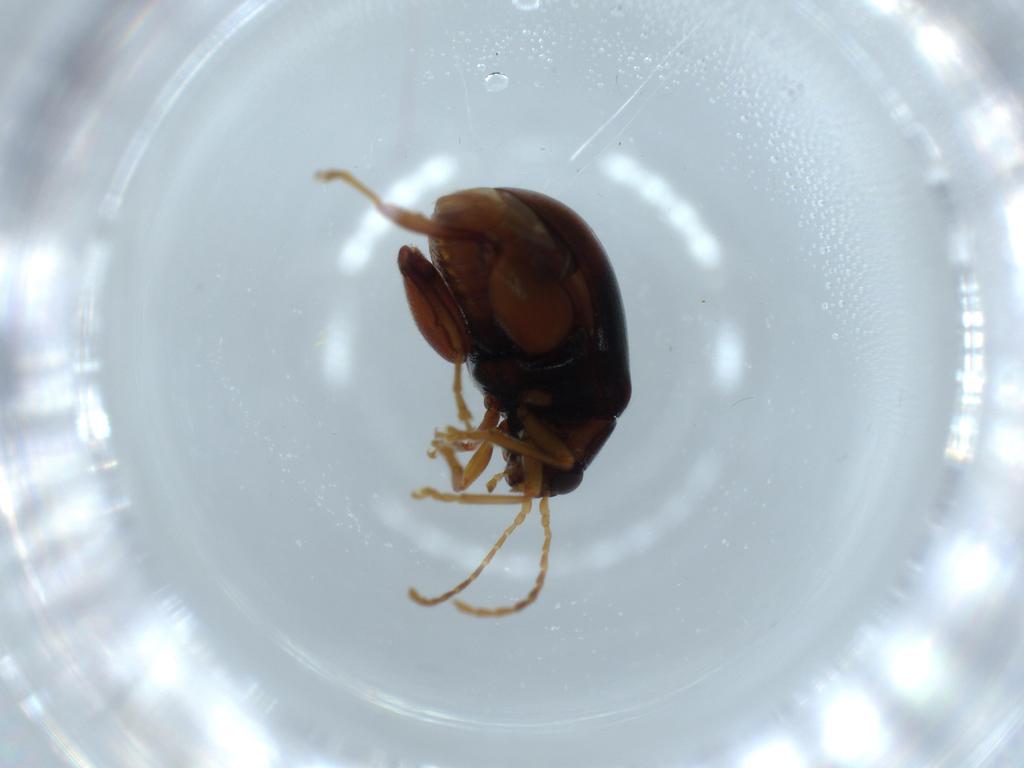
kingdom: Animalia
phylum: Arthropoda
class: Insecta
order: Coleoptera
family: Chrysomelidae
